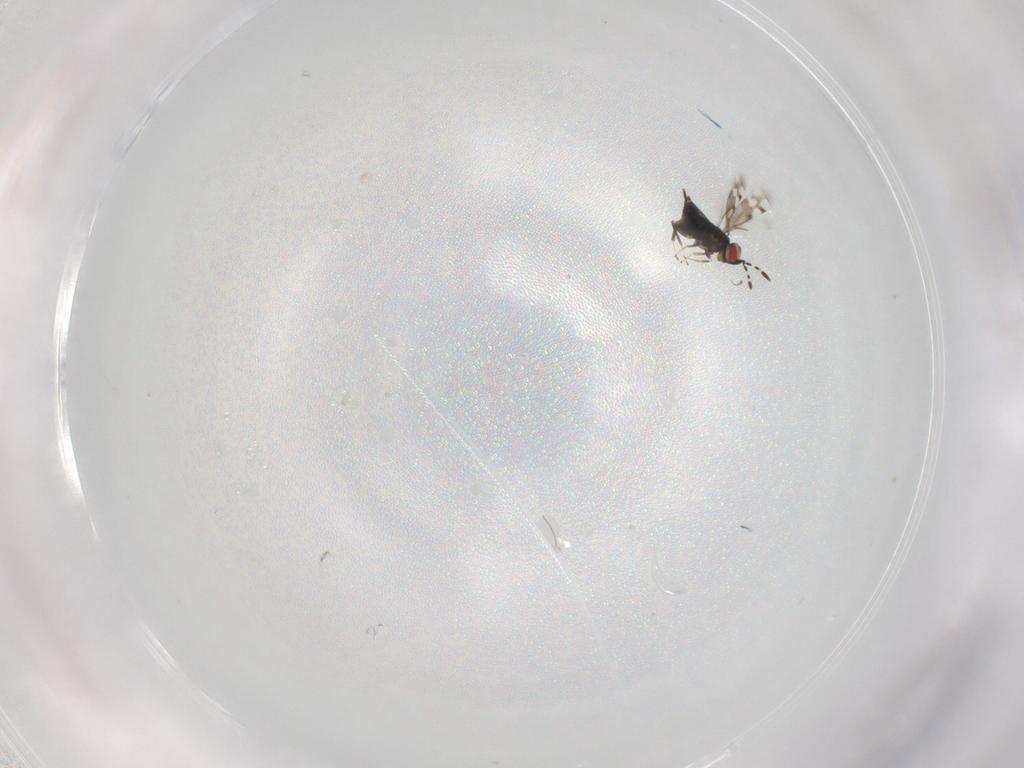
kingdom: Animalia
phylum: Arthropoda
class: Insecta
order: Hymenoptera
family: Azotidae
